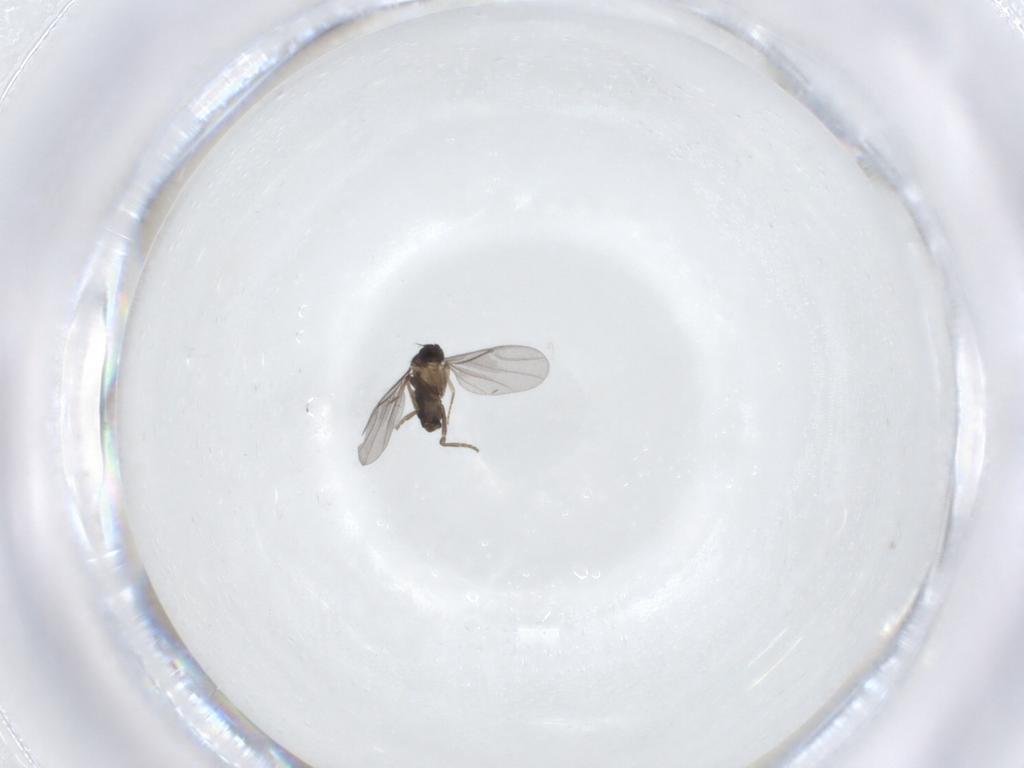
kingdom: Animalia
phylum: Arthropoda
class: Insecta
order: Diptera
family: Phoridae
